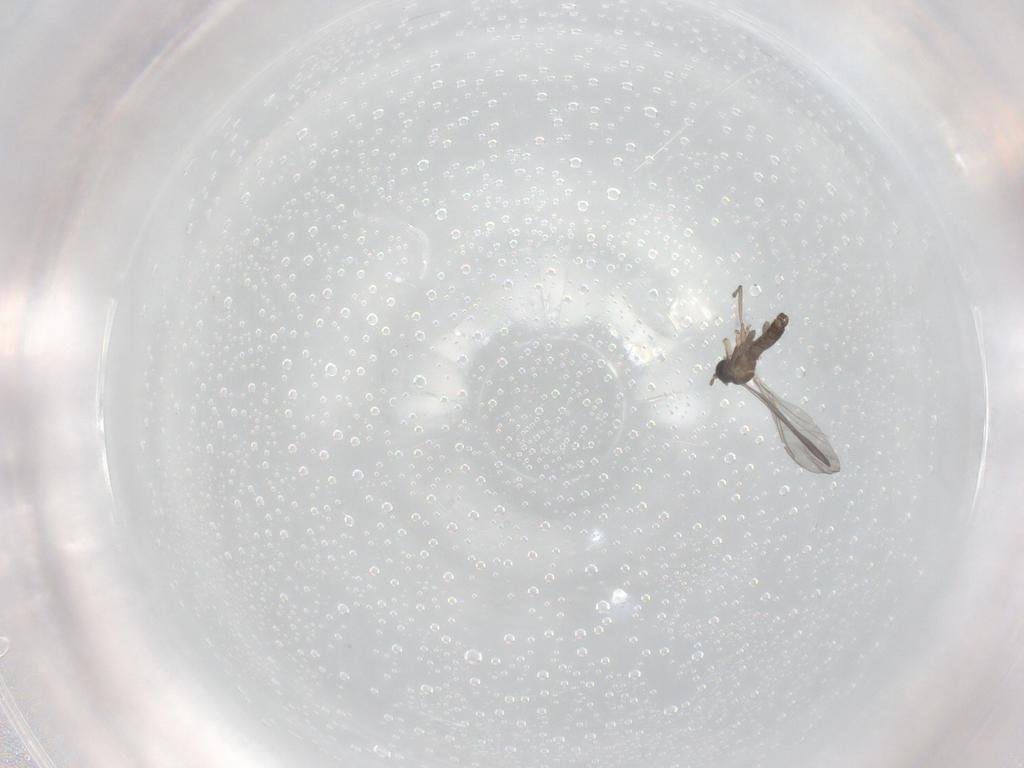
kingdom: Animalia
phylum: Arthropoda
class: Insecta
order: Diptera
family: Sciaridae
